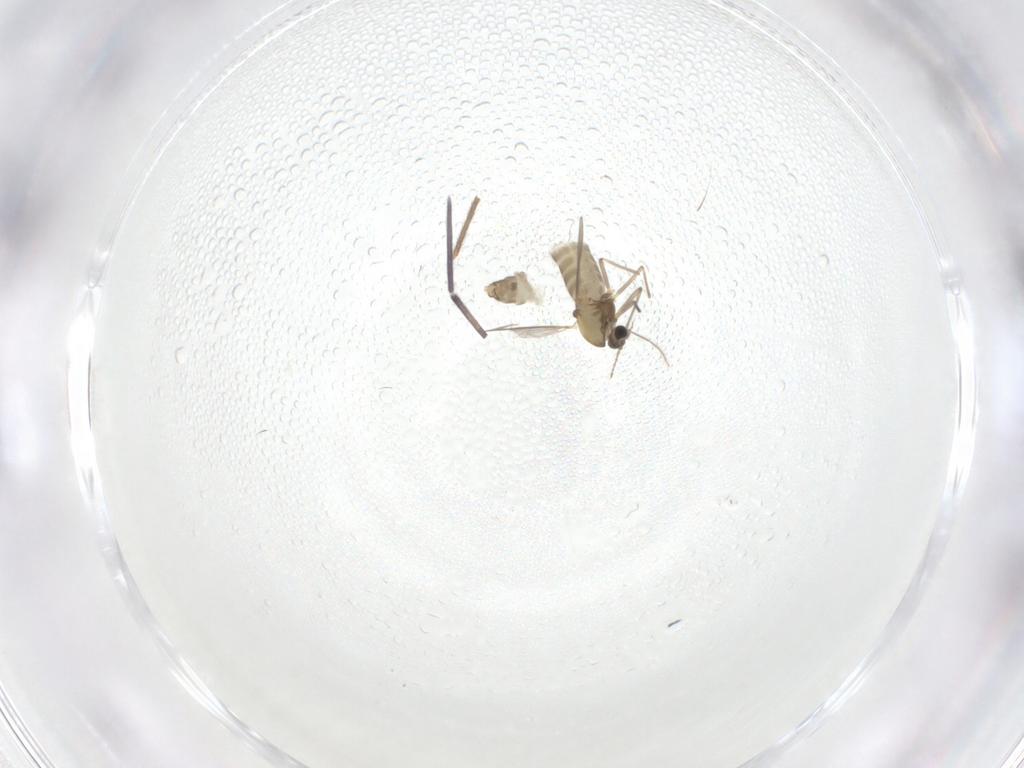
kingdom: Animalia
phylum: Arthropoda
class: Insecta
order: Diptera
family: Chironomidae
